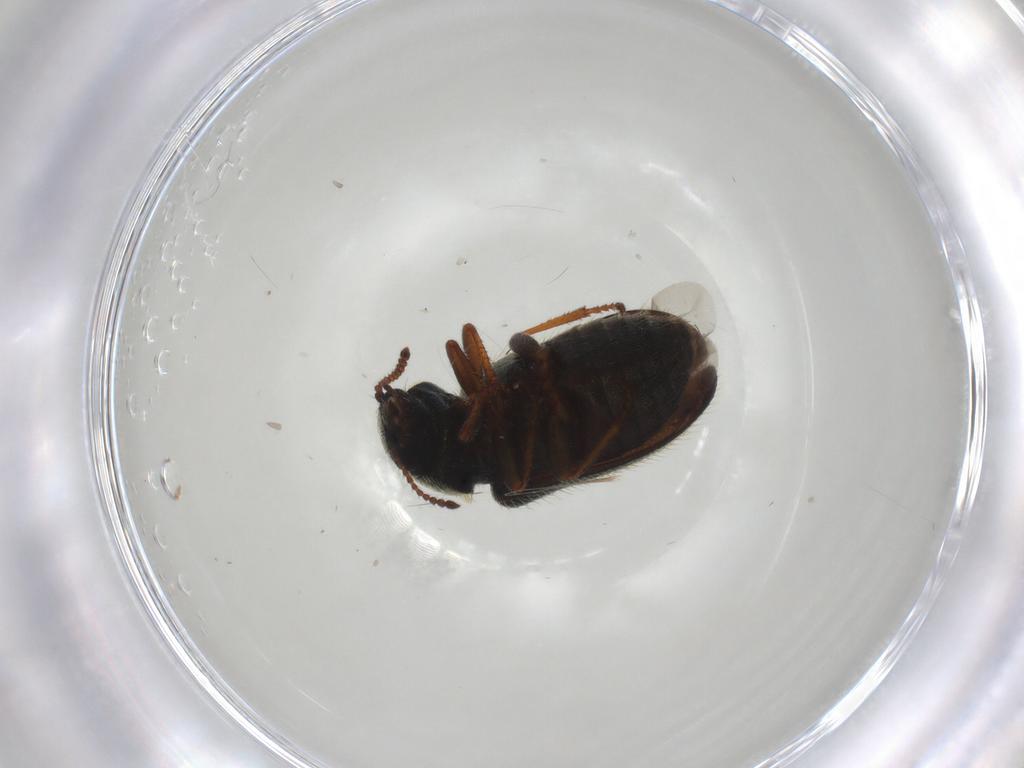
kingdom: Animalia
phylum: Arthropoda
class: Insecta
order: Coleoptera
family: Melyridae
